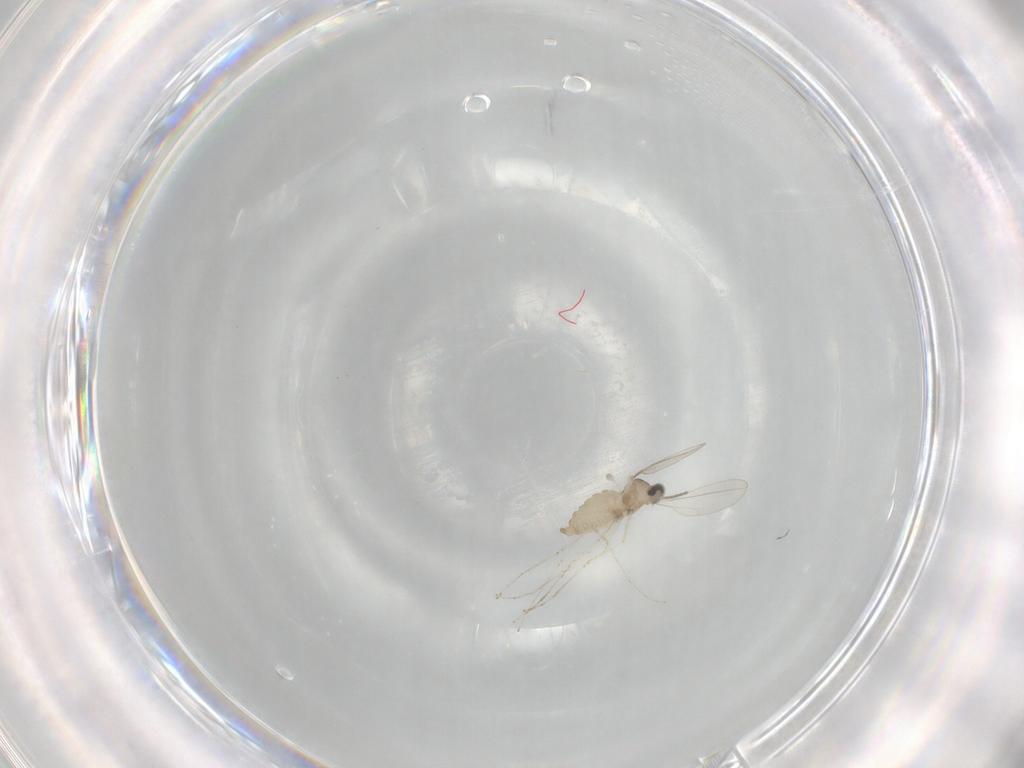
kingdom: Animalia
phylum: Arthropoda
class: Insecta
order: Diptera
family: Cecidomyiidae
